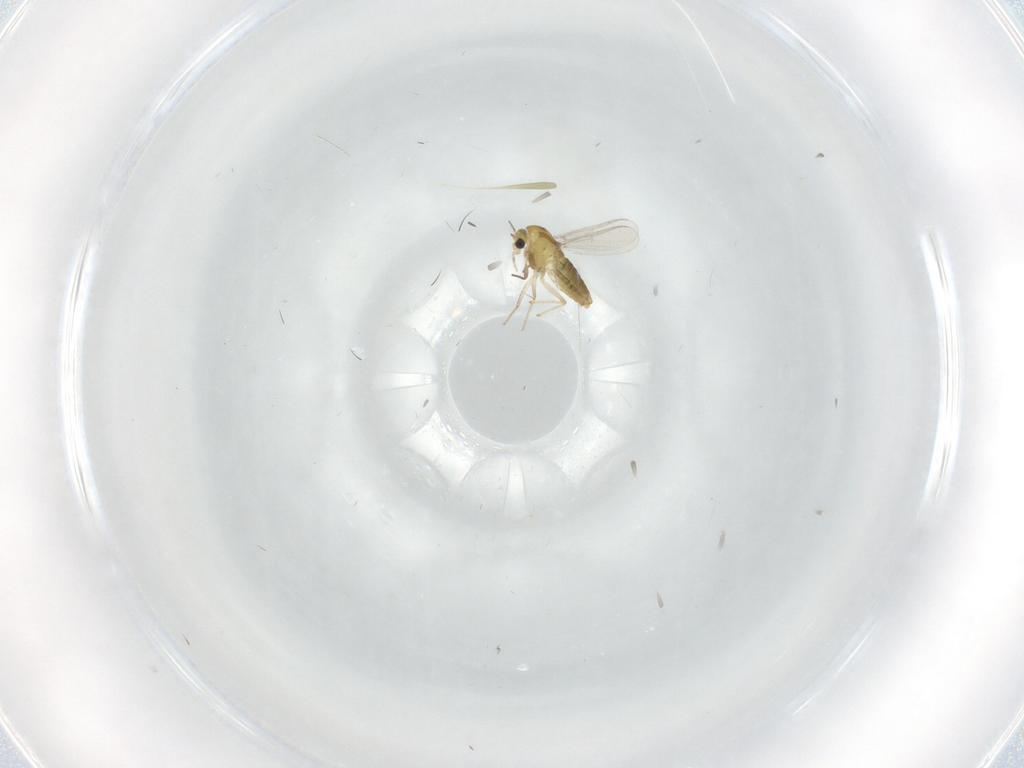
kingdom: Animalia
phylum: Arthropoda
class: Insecta
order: Diptera
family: Chironomidae
